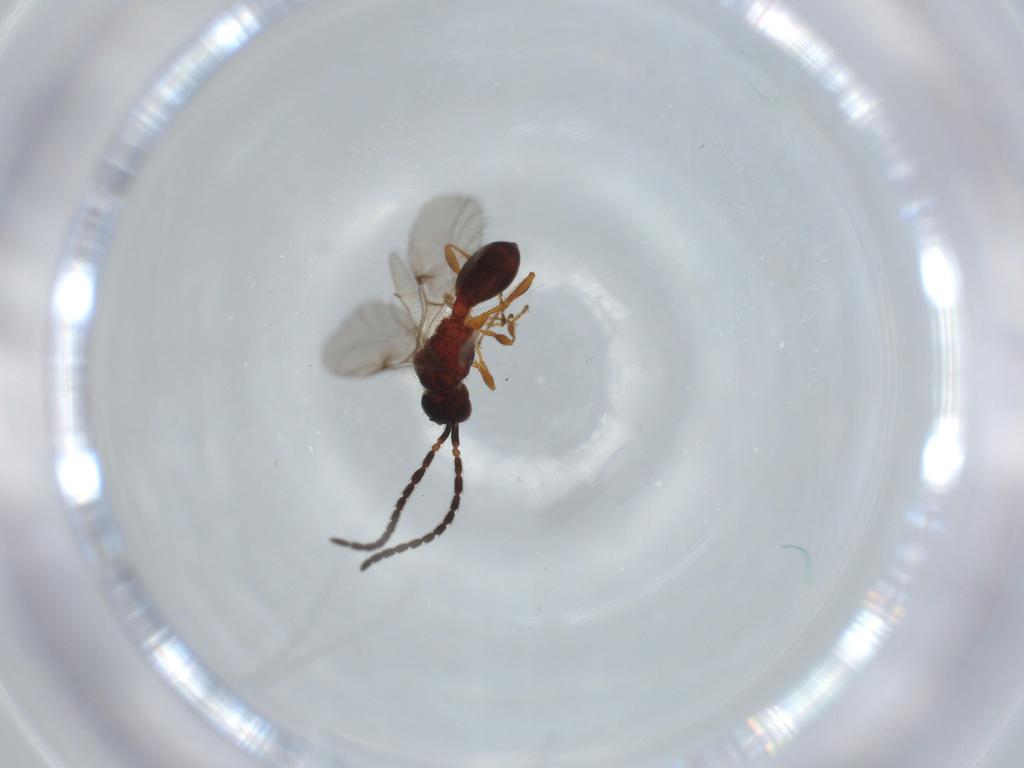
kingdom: Animalia
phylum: Arthropoda
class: Insecta
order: Hymenoptera
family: Formicidae
